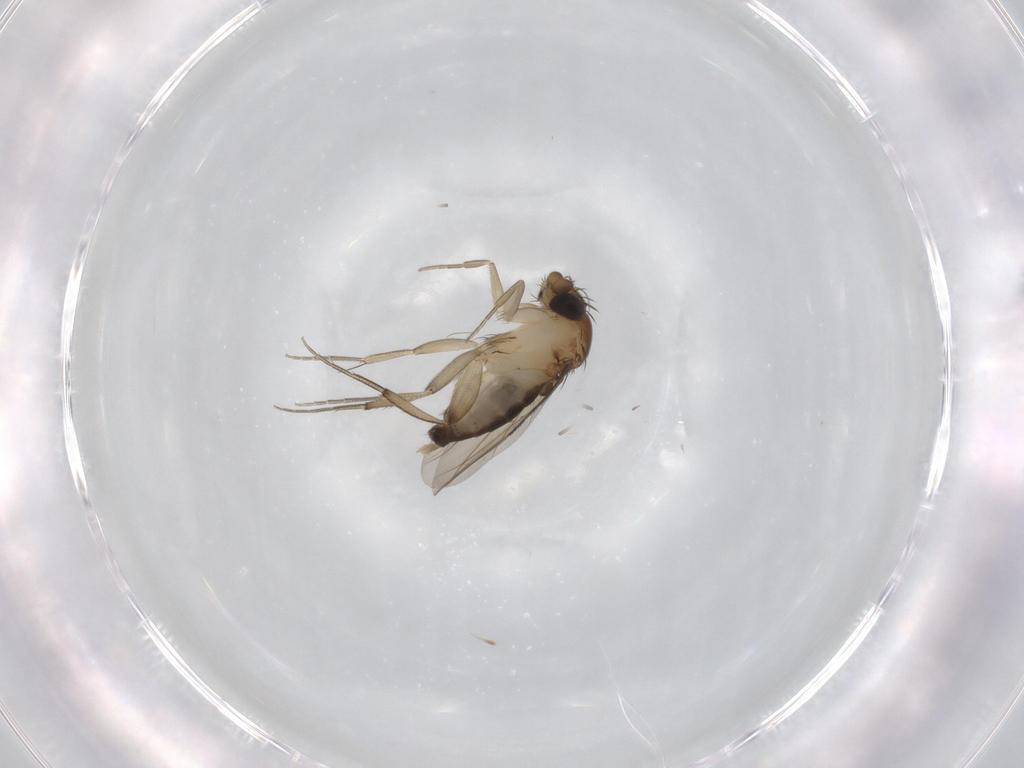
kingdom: Animalia
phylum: Arthropoda
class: Insecta
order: Diptera
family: Phoridae
